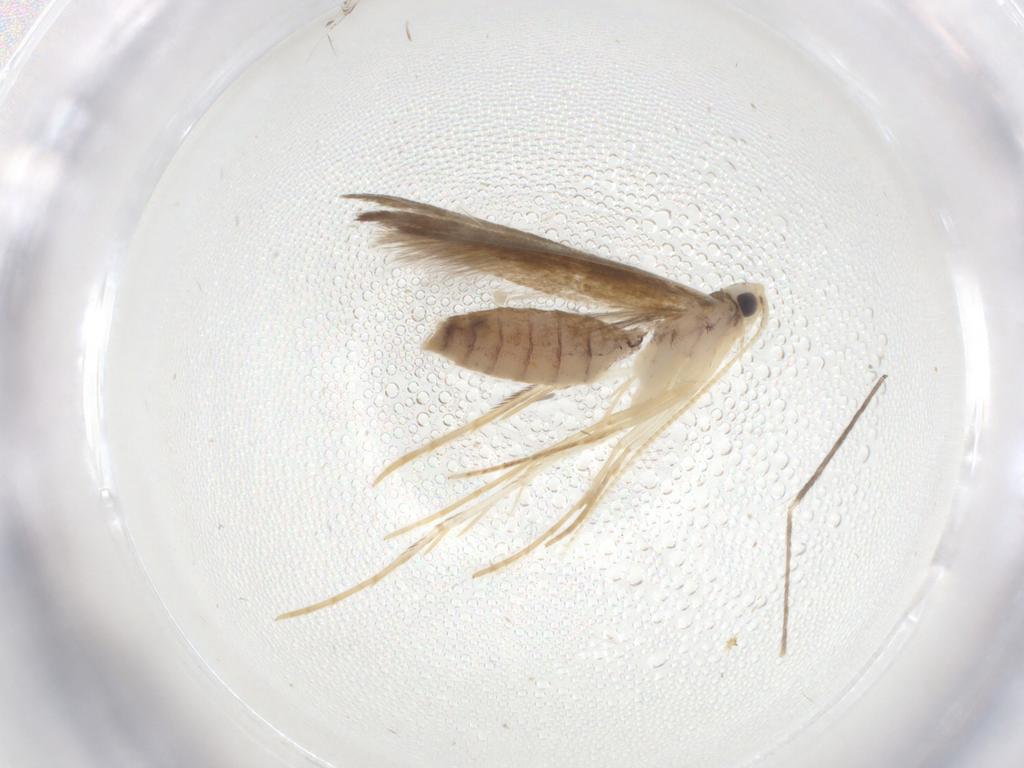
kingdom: Animalia
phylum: Arthropoda
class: Insecta
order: Lepidoptera
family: Lyonetiidae
